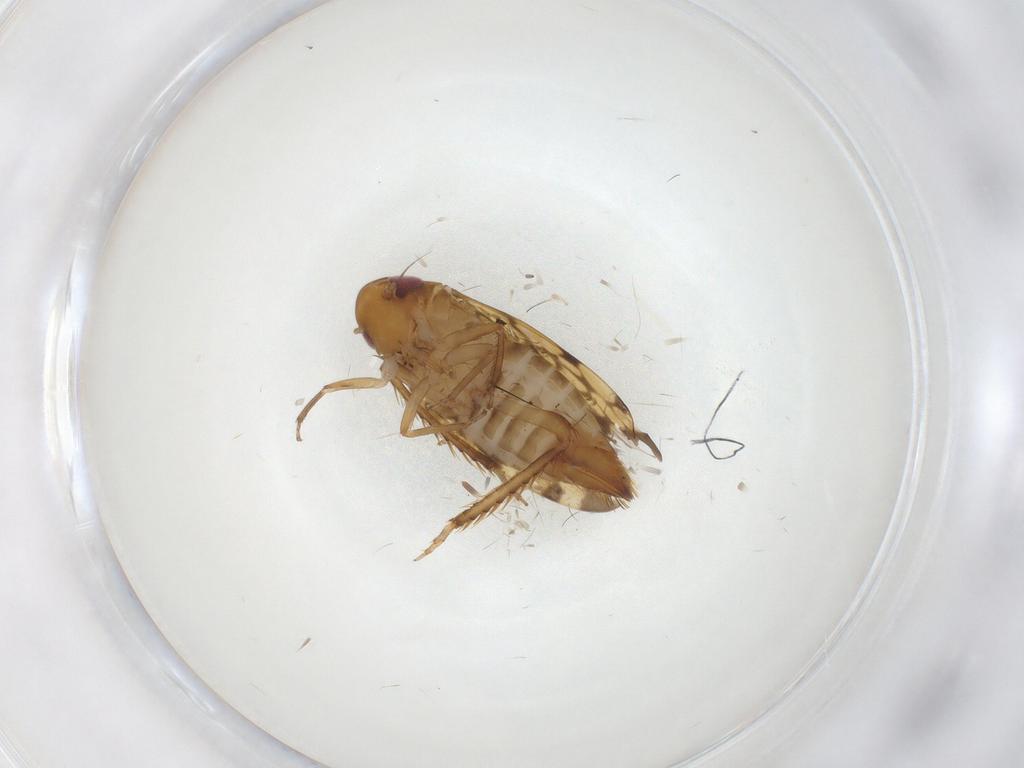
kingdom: Animalia
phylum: Arthropoda
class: Insecta
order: Hemiptera
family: Cicadellidae
